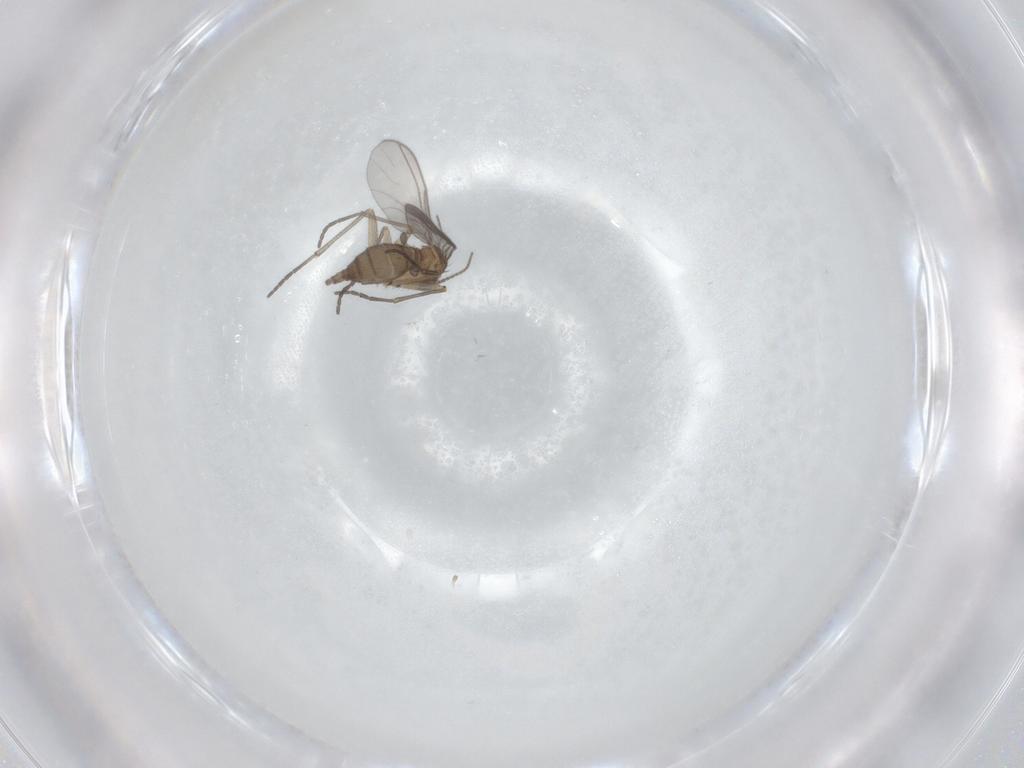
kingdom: Animalia
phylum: Arthropoda
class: Insecta
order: Diptera
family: Sciaridae
